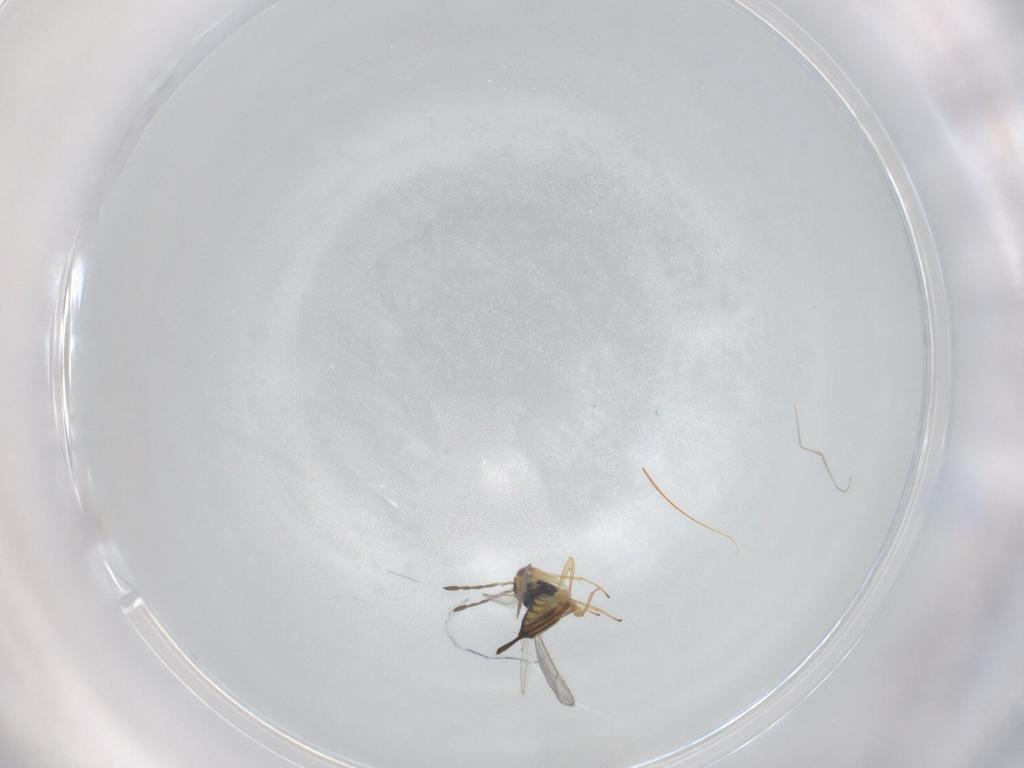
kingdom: Animalia
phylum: Arthropoda
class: Insecta
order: Hymenoptera
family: Eulophidae
